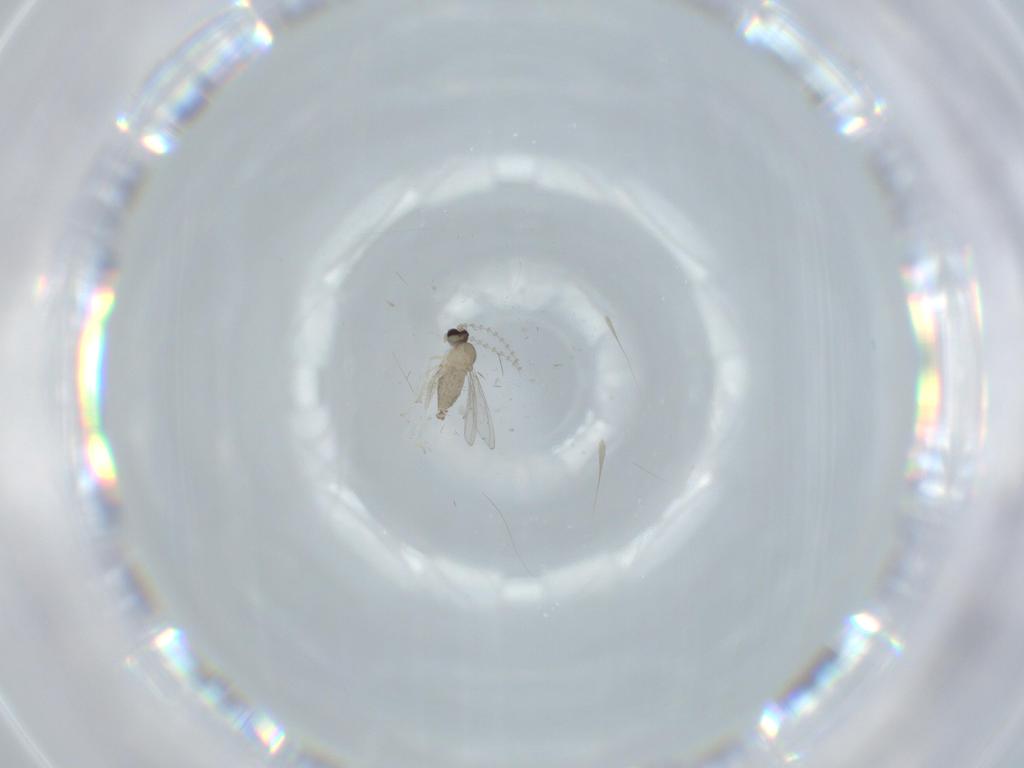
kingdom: Animalia
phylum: Arthropoda
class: Insecta
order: Diptera
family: Cecidomyiidae
